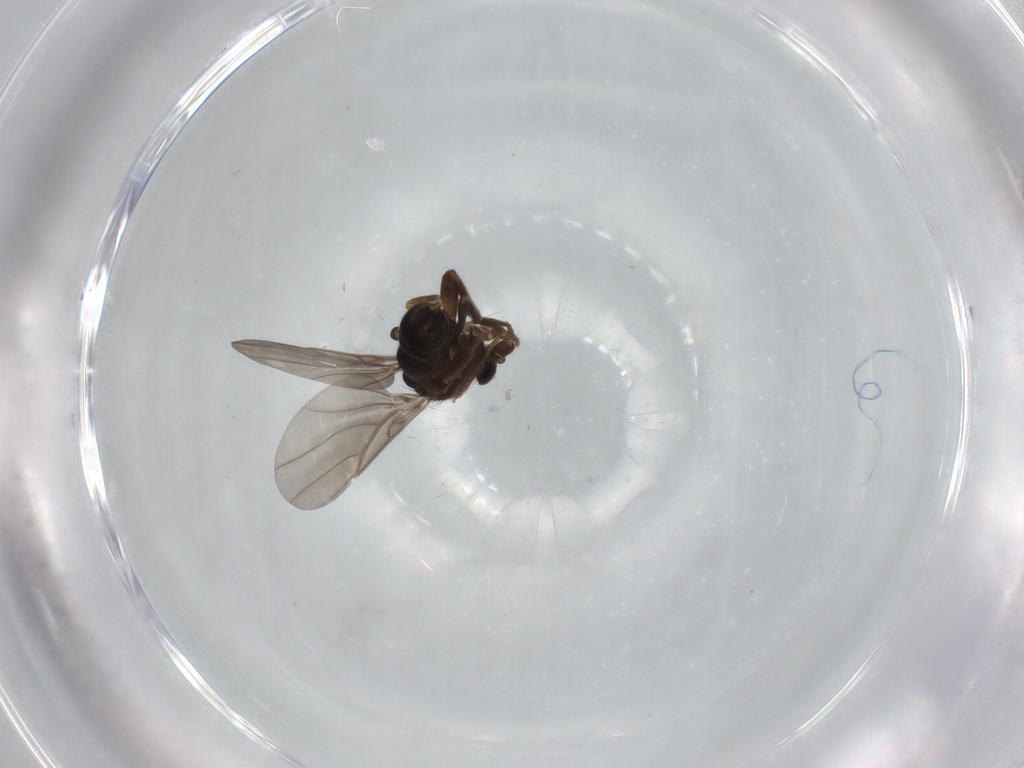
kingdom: Animalia
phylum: Arthropoda
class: Insecta
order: Diptera
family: Phoridae
